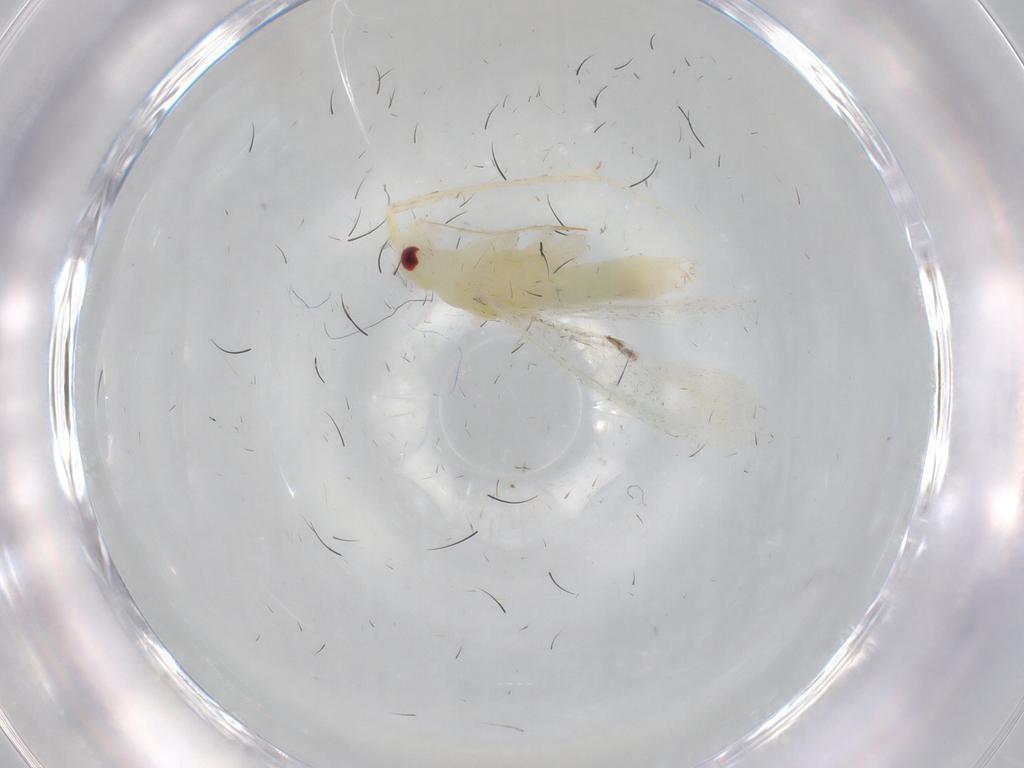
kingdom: Animalia
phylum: Arthropoda
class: Insecta
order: Hemiptera
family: Miridae
